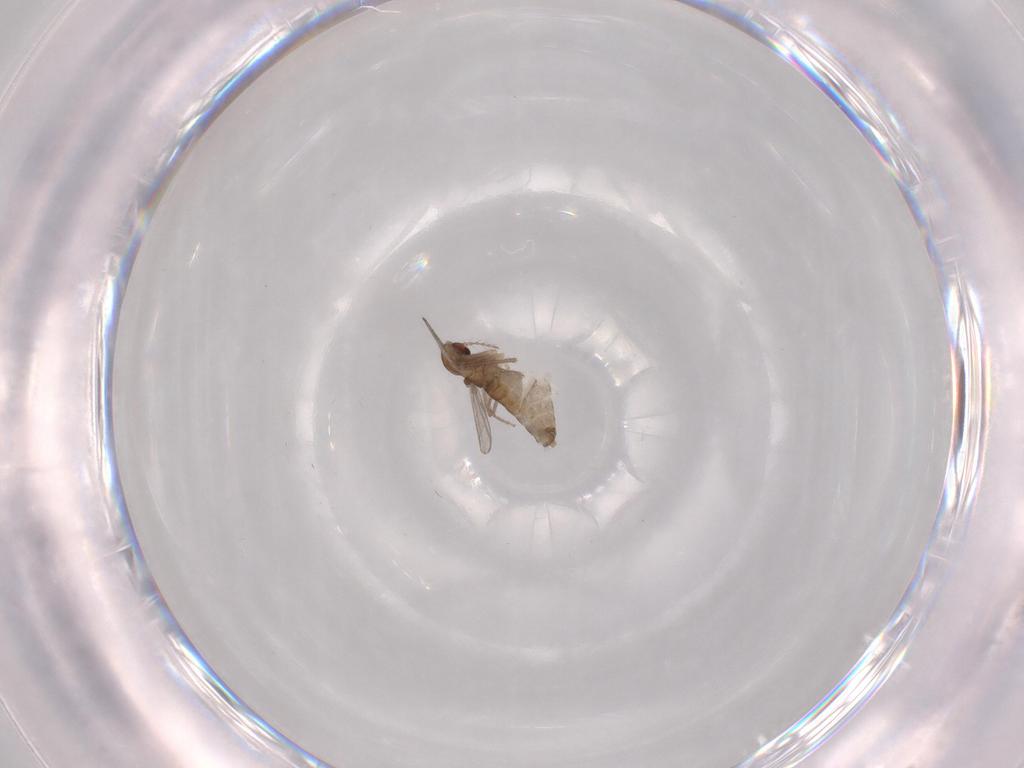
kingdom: Animalia
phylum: Arthropoda
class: Insecta
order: Diptera
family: Chironomidae
